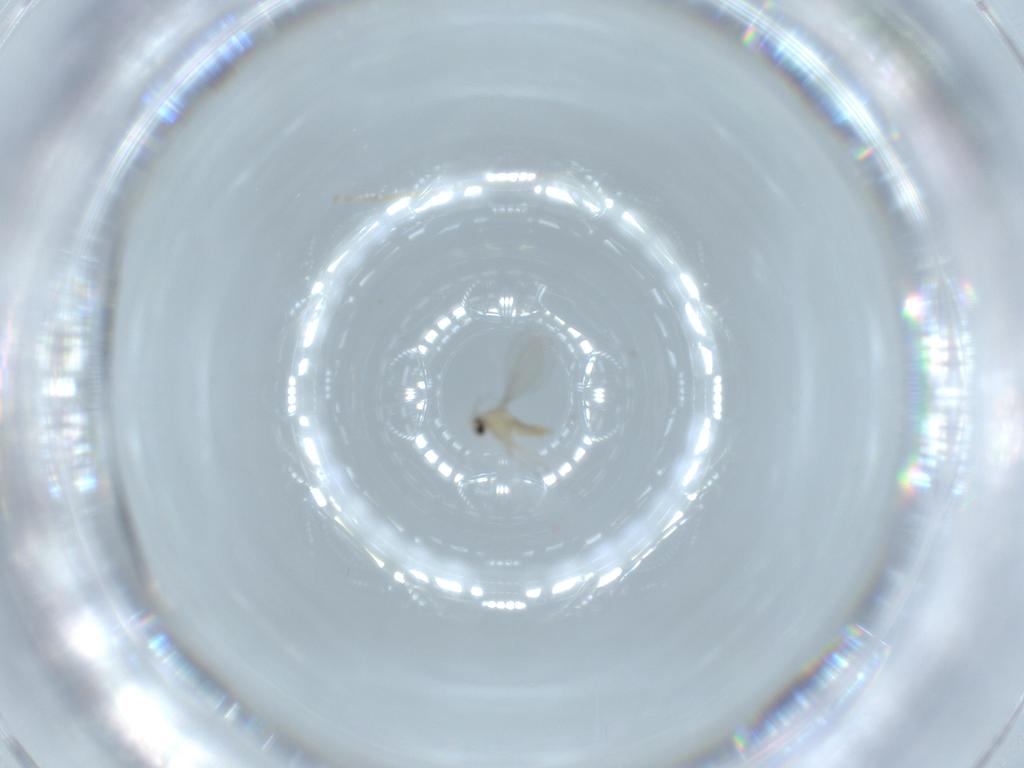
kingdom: Animalia
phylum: Arthropoda
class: Insecta
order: Diptera
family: Cecidomyiidae
